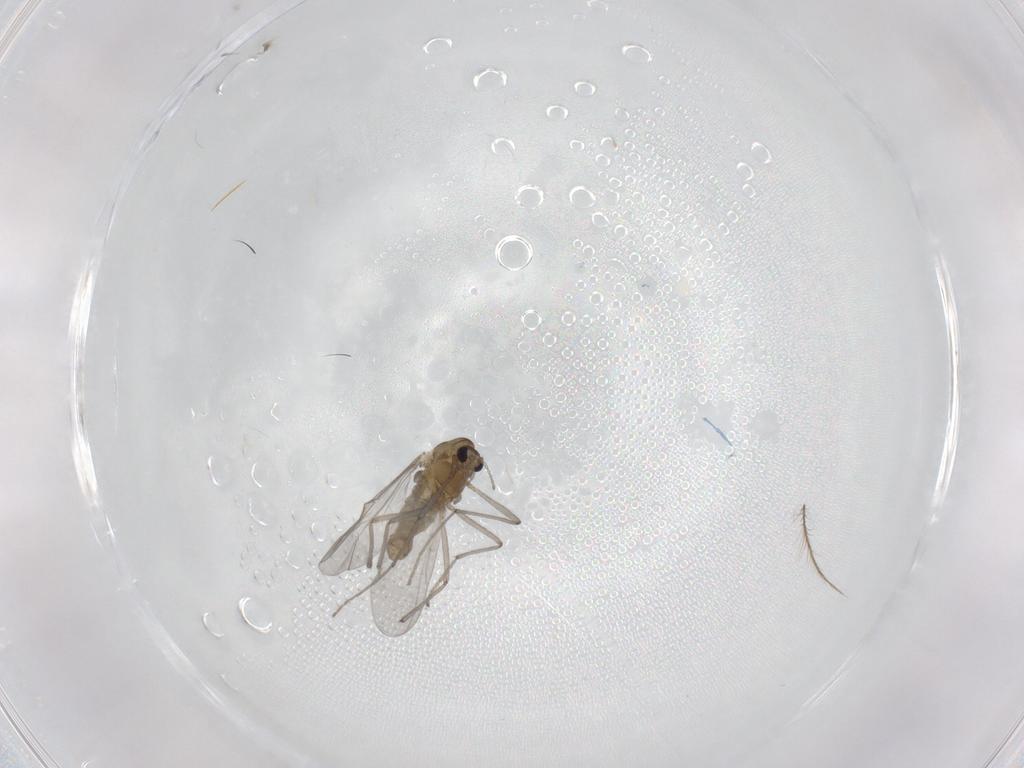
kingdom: Animalia
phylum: Arthropoda
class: Insecta
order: Diptera
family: Chironomidae
